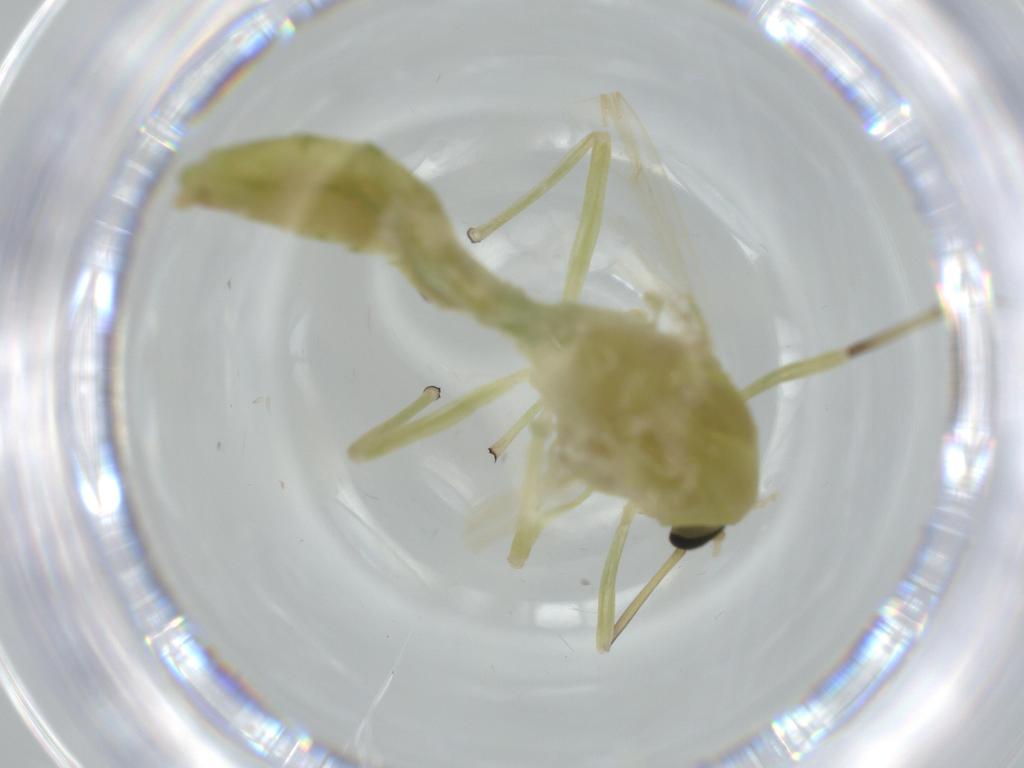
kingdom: Animalia
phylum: Arthropoda
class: Insecta
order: Diptera
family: Chironomidae
